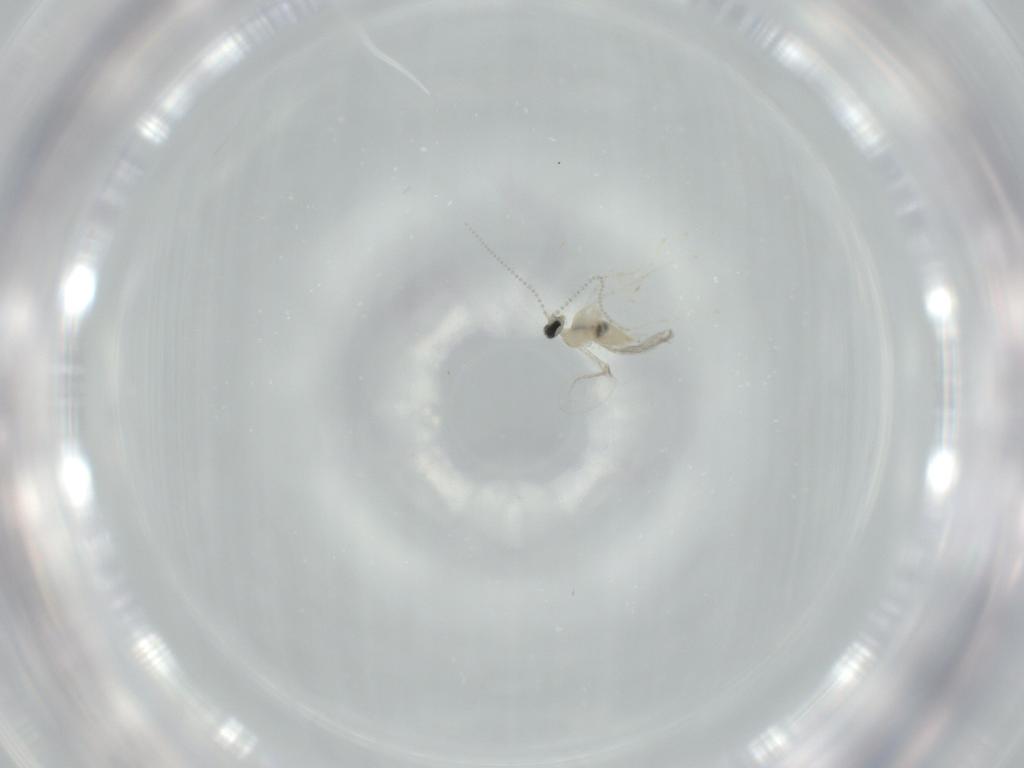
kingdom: Animalia
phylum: Arthropoda
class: Insecta
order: Diptera
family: Cecidomyiidae
